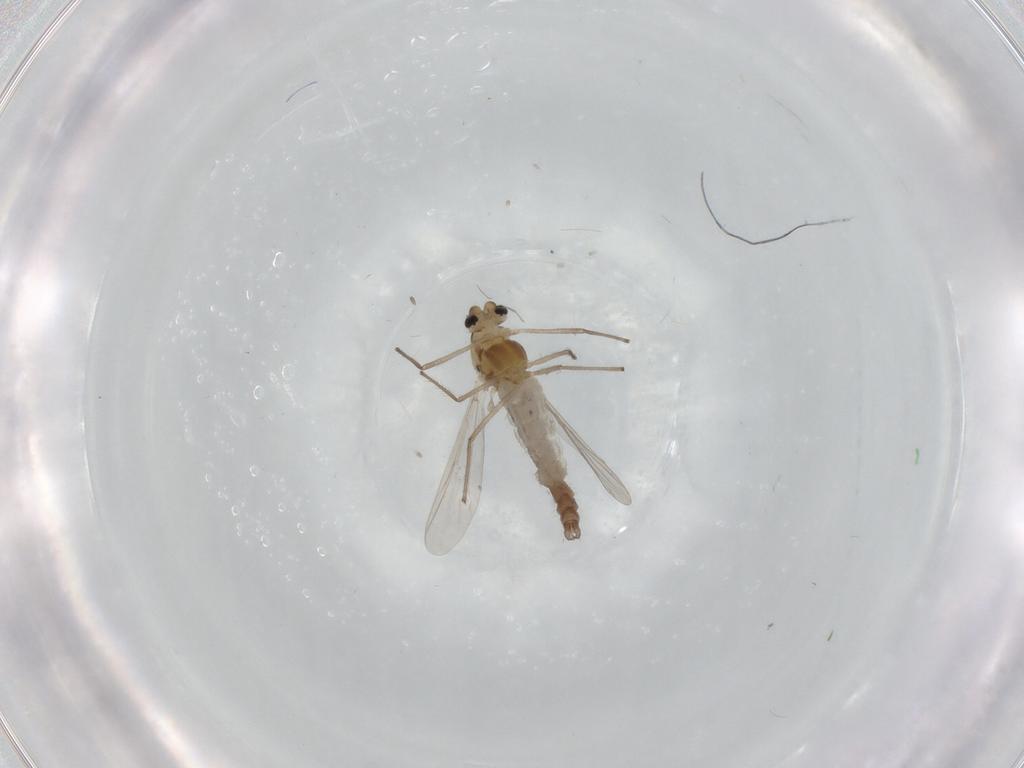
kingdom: Animalia
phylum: Arthropoda
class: Insecta
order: Diptera
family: Chironomidae
